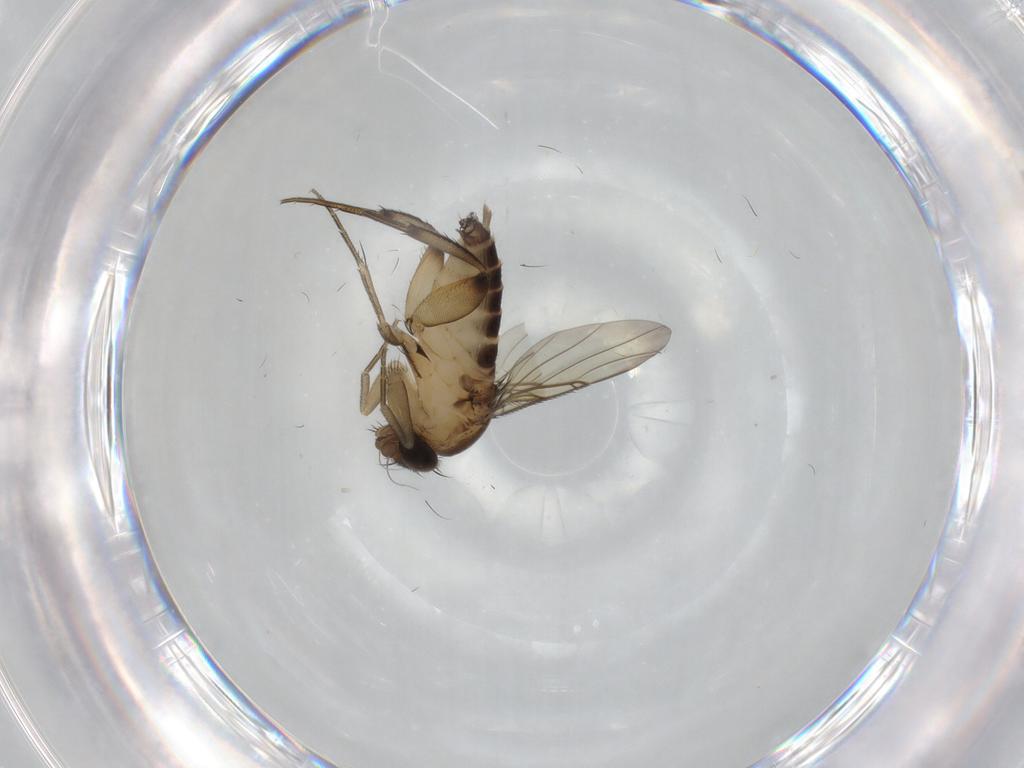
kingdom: Animalia
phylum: Arthropoda
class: Insecta
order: Diptera
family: Phoridae
